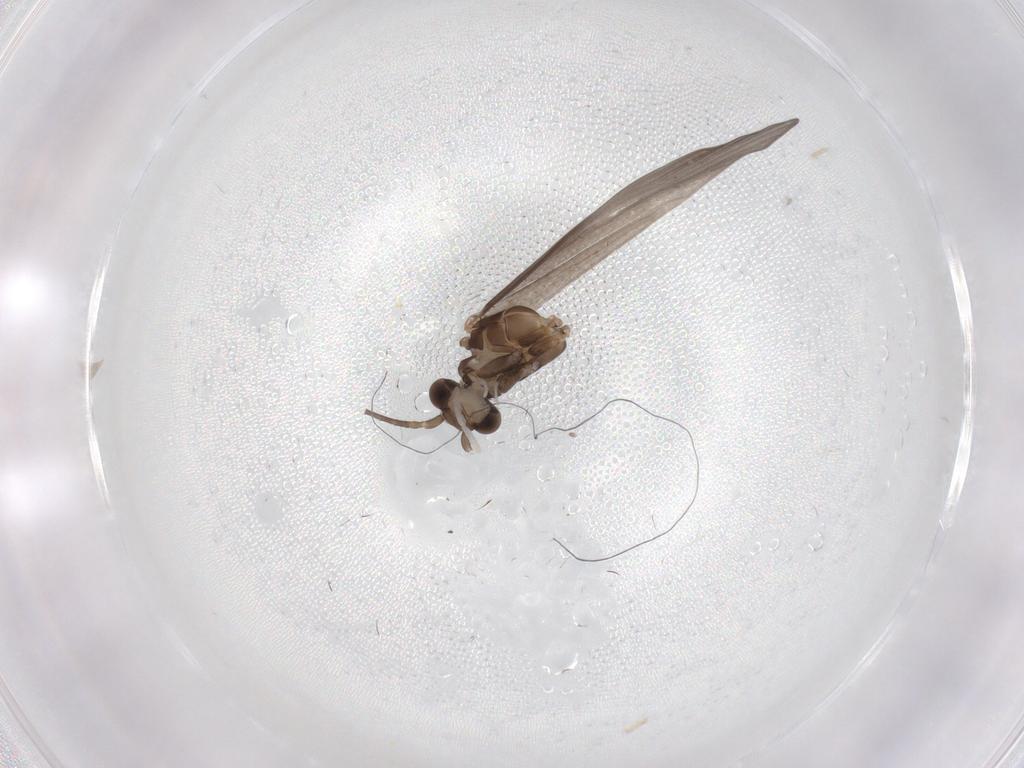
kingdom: Animalia
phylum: Arthropoda
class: Insecta
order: Trichoptera
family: Xiphocentronidae
